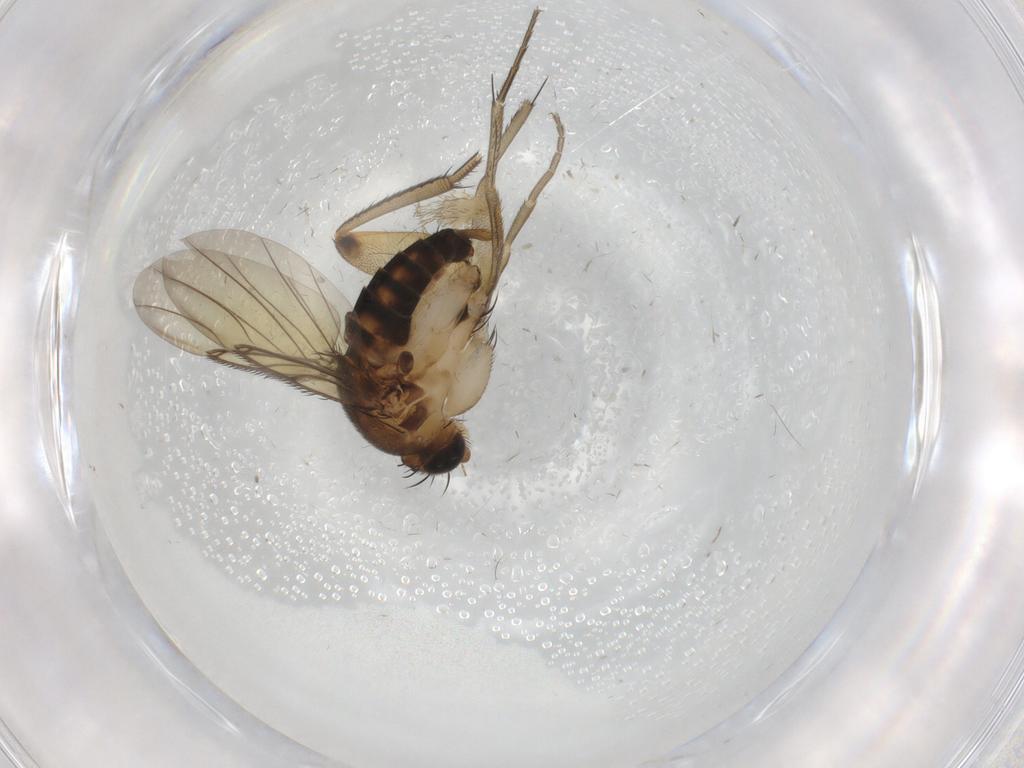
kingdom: Animalia
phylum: Arthropoda
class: Insecta
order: Diptera
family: Phoridae
